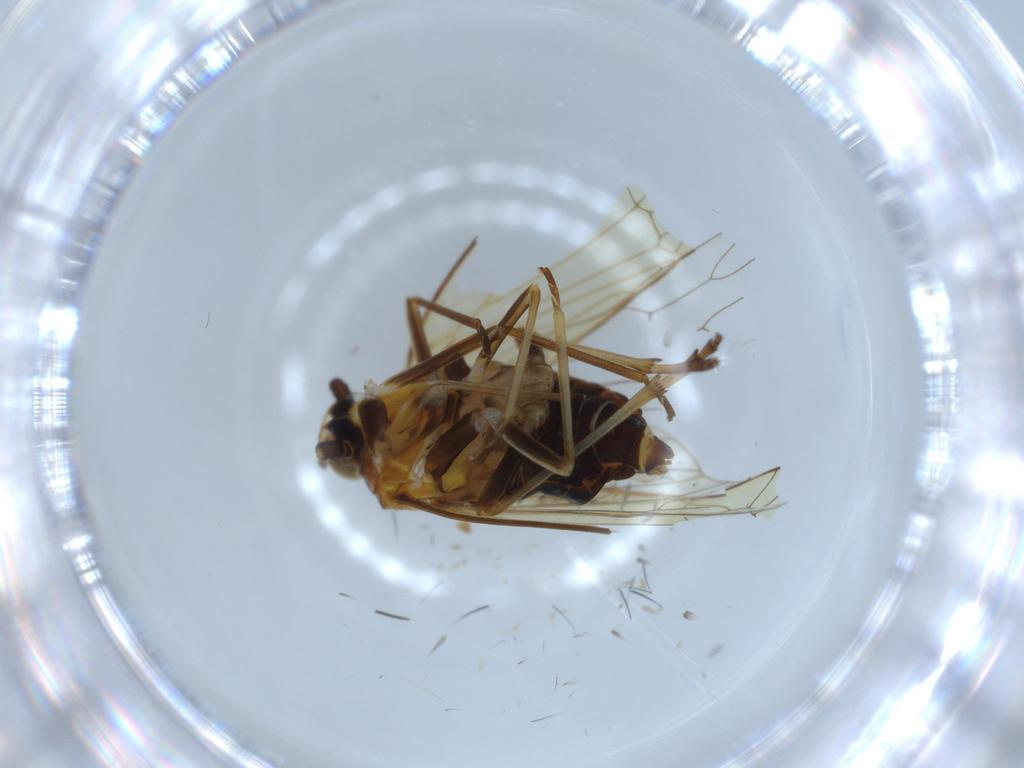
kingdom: Animalia
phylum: Arthropoda
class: Insecta
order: Hemiptera
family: Kinnaridae
